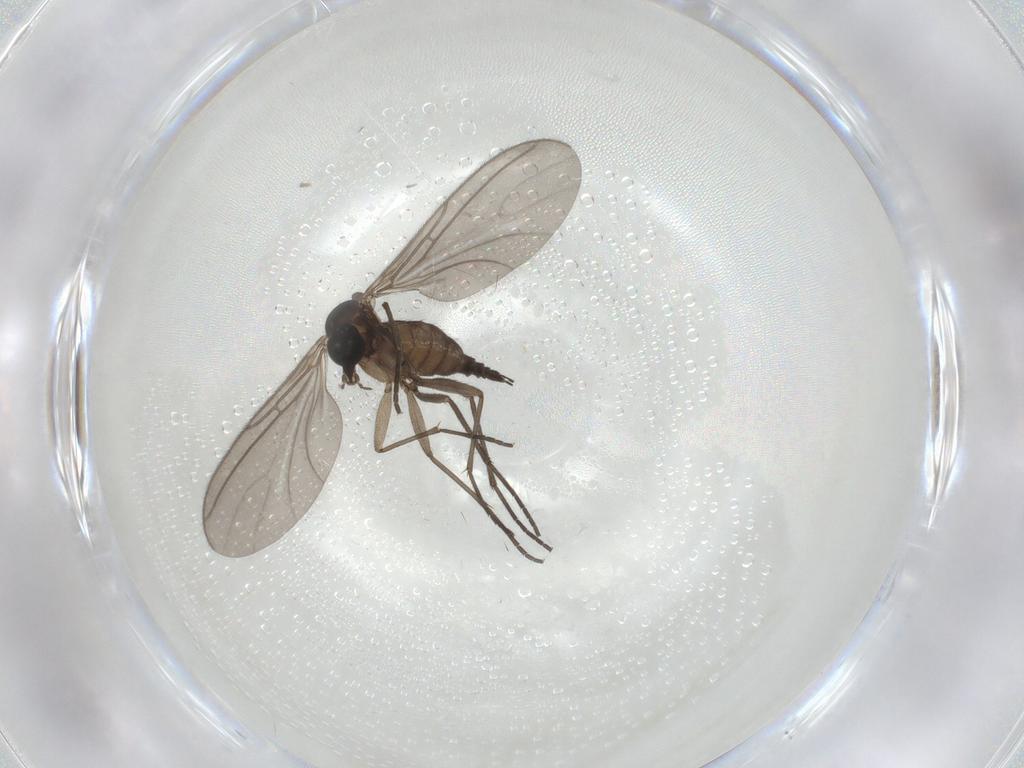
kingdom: Animalia
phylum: Arthropoda
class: Insecta
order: Diptera
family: Sciaridae
